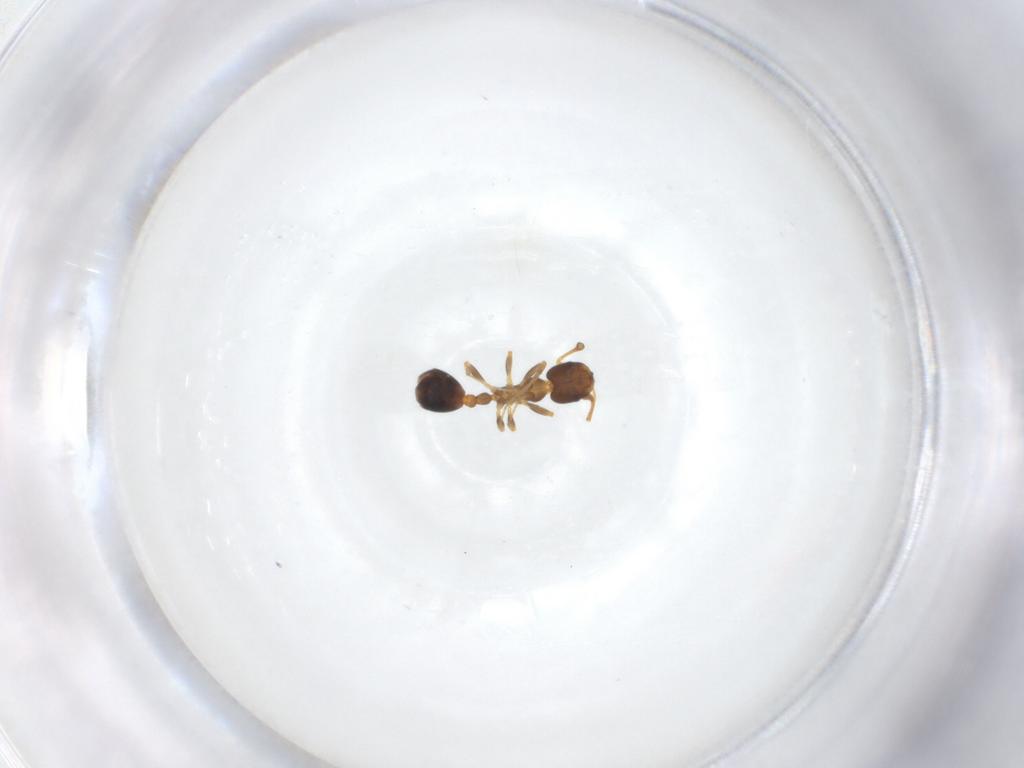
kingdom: Animalia
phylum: Arthropoda
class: Insecta
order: Hymenoptera
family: Formicidae
